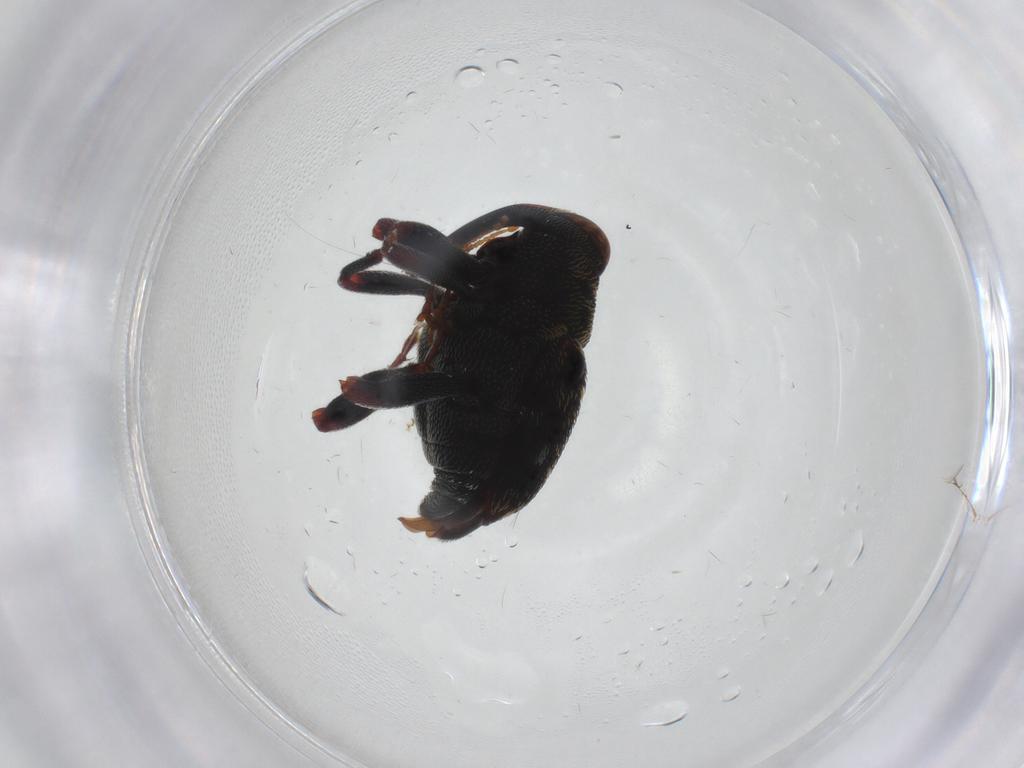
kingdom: Animalia
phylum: Arthropoda
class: Insecta
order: Coleoptera
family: Curculionidae
